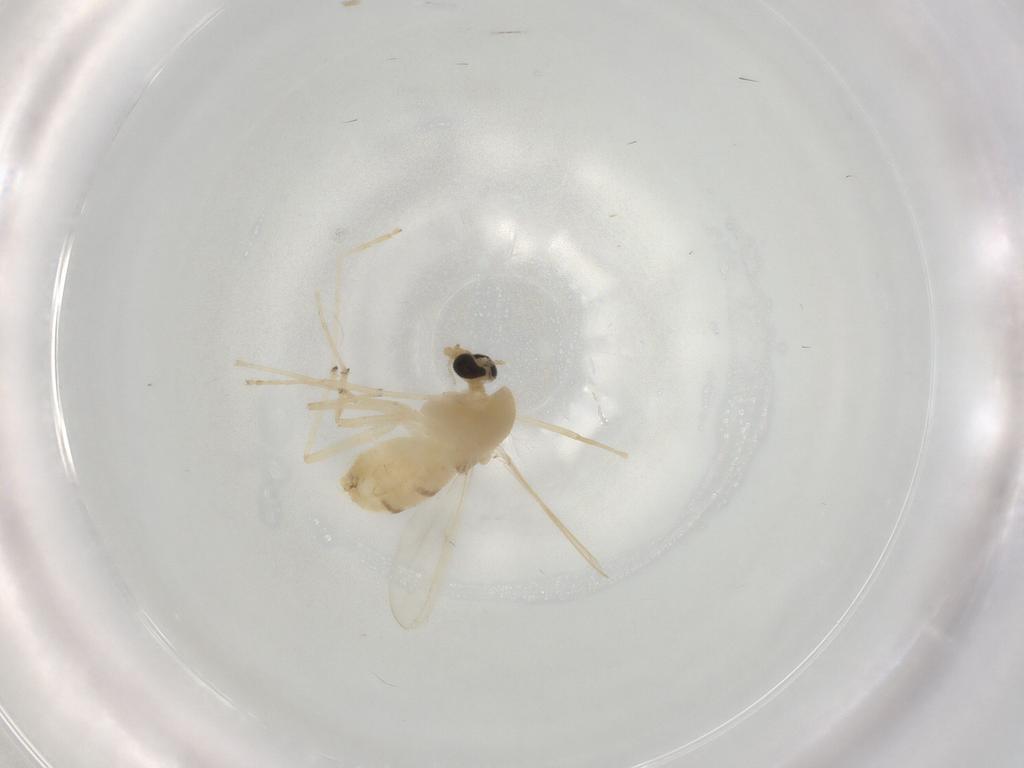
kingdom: Animalia
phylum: Arthropoda
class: Insecta
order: Diptera
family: Limoniidae
